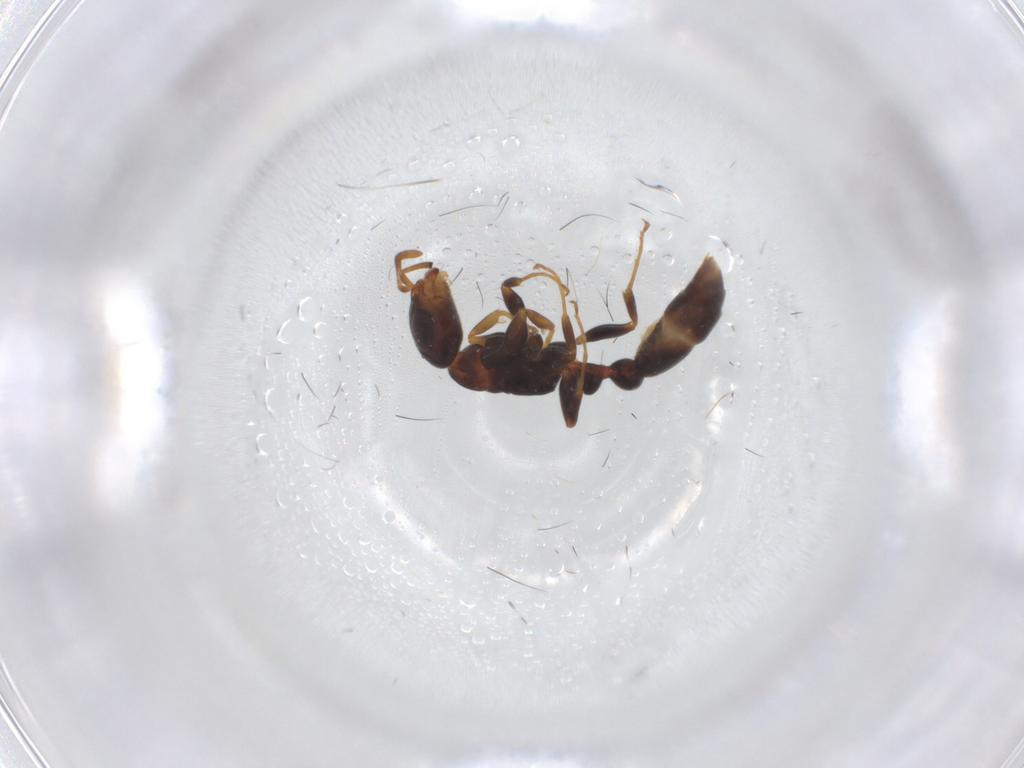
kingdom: Animalia
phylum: Arthropoda
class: Insecta
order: Hymenoptera
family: Formicidae
